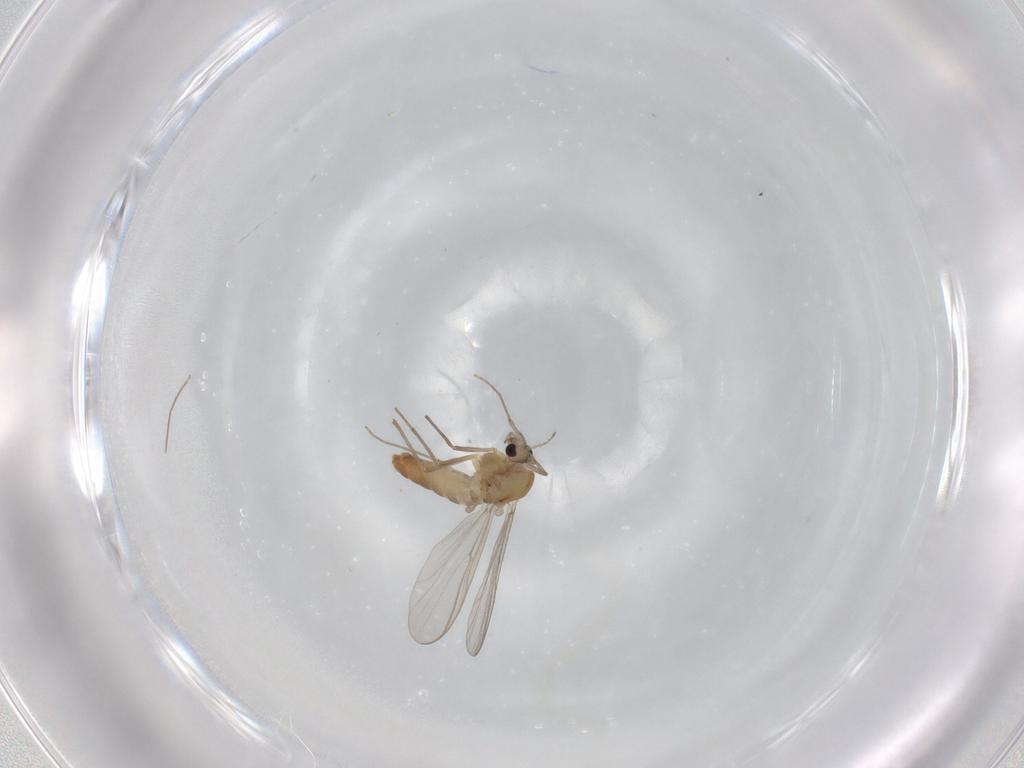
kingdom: Animalia
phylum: Arthropoda
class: Insecta
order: Diptera
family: Chironomidae
